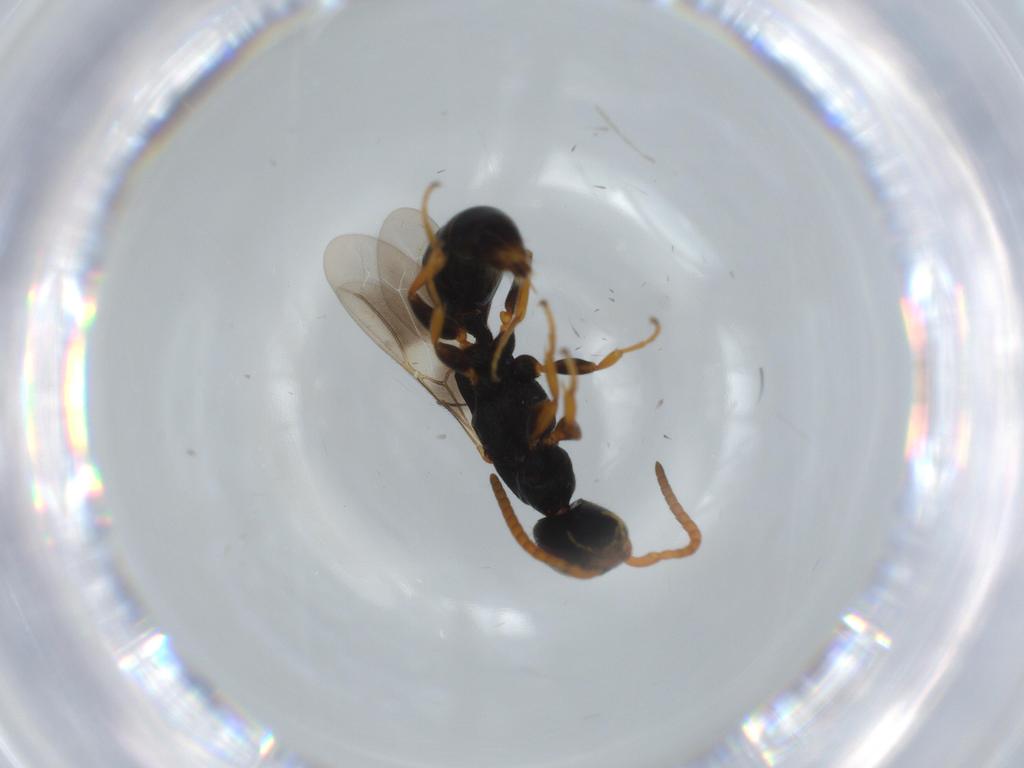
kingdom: Animalia
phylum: Arthropoda
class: Insecta
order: Hymenoptera
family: Bethylidae
